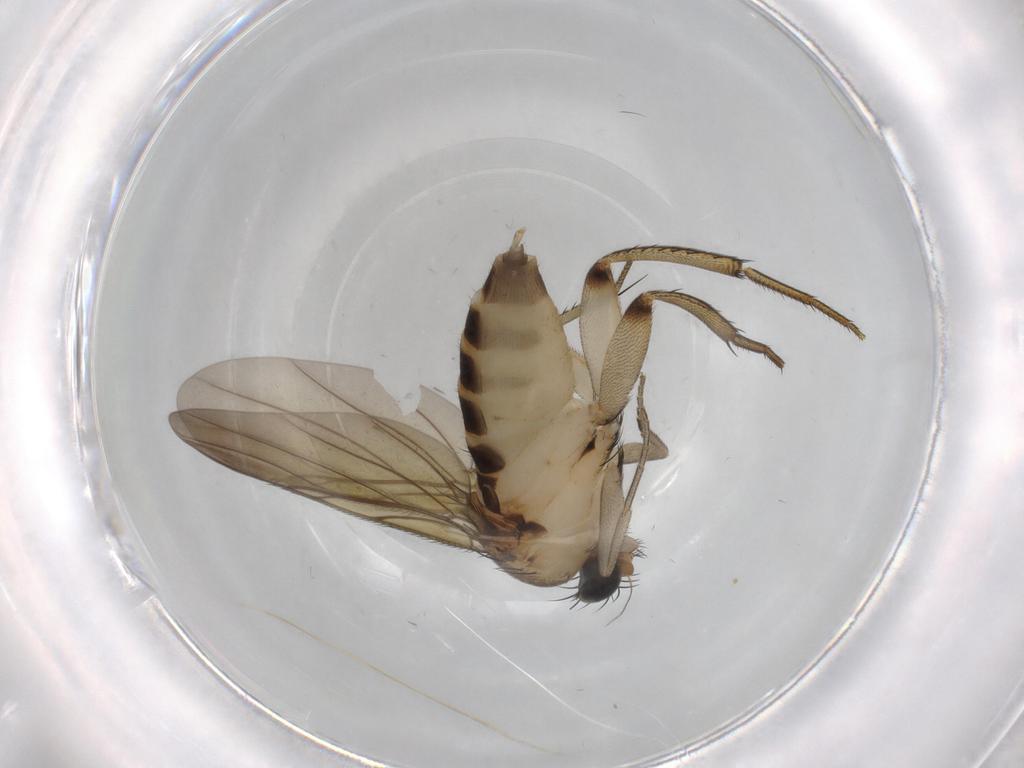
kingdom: Animalia
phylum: Arthropoda
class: Insecta
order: Diptera
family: Phoridae
